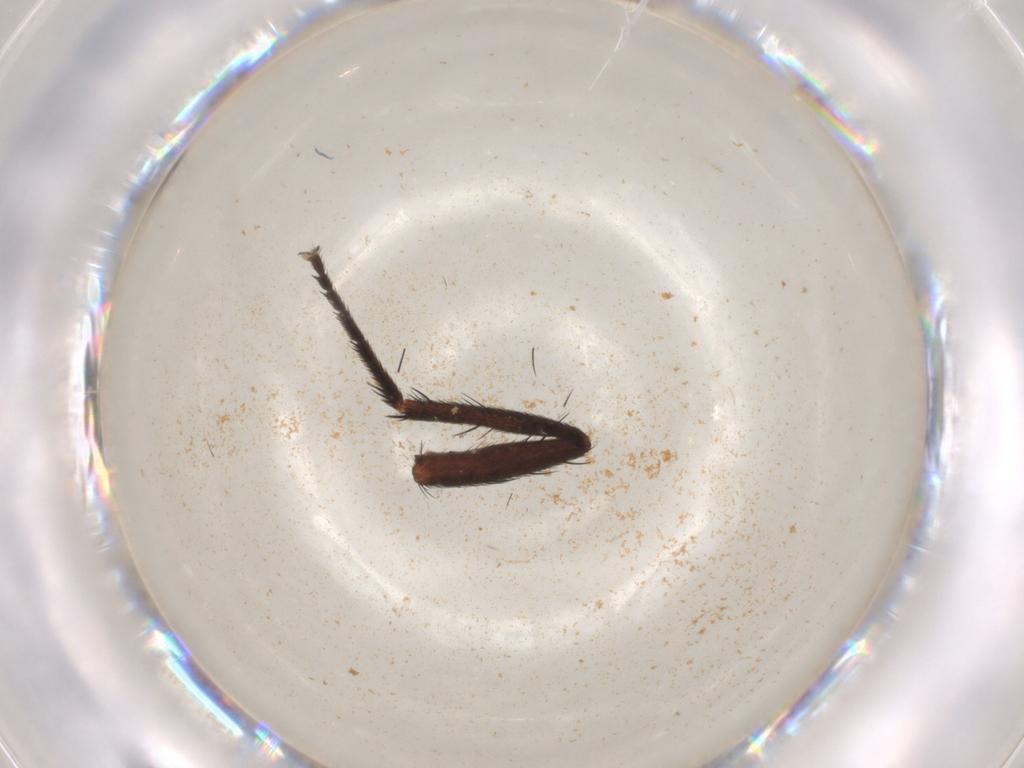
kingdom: Animalia
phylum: Arthropoda
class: Insecta
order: Diptera
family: Sarcophagidae
